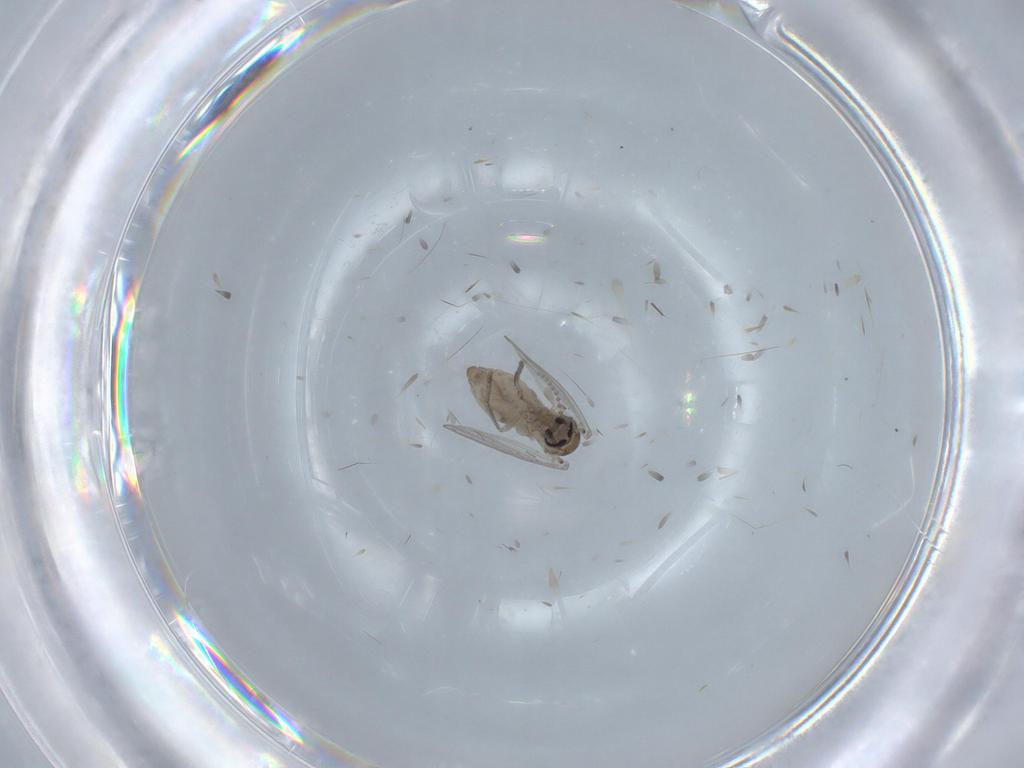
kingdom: Animalia
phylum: Arthropoda
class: Insecta
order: Diptera
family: Psychodidae
